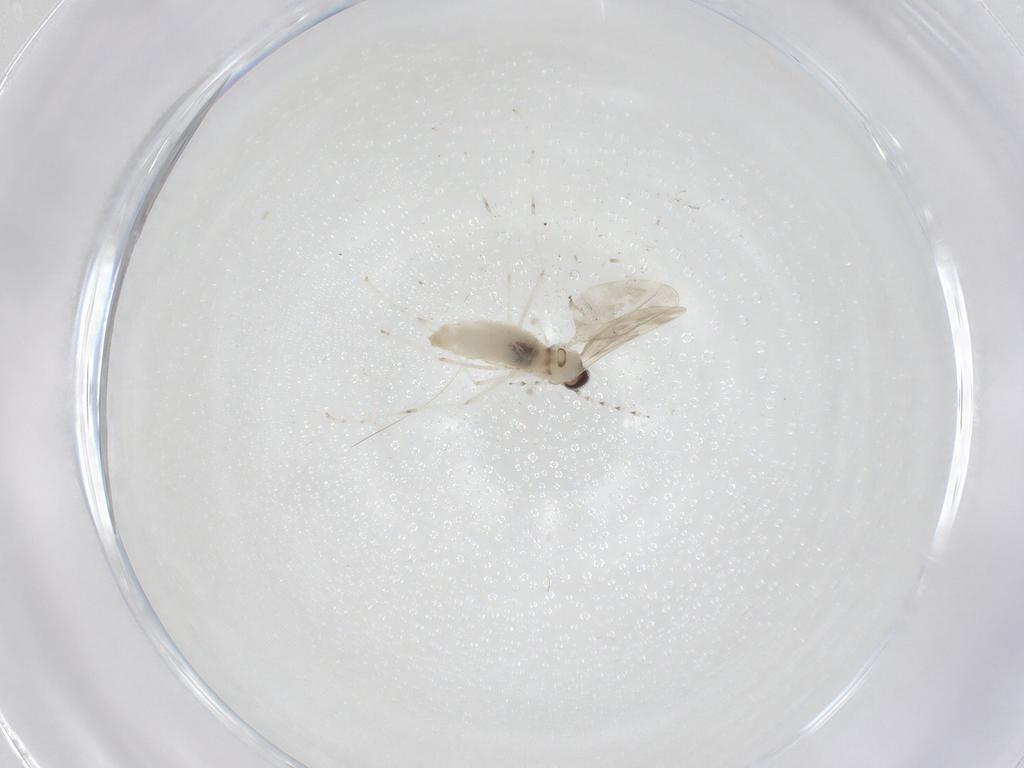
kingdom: Animalia
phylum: Arthropoda
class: Insecta
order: Diptera
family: Cecidomyiidae
